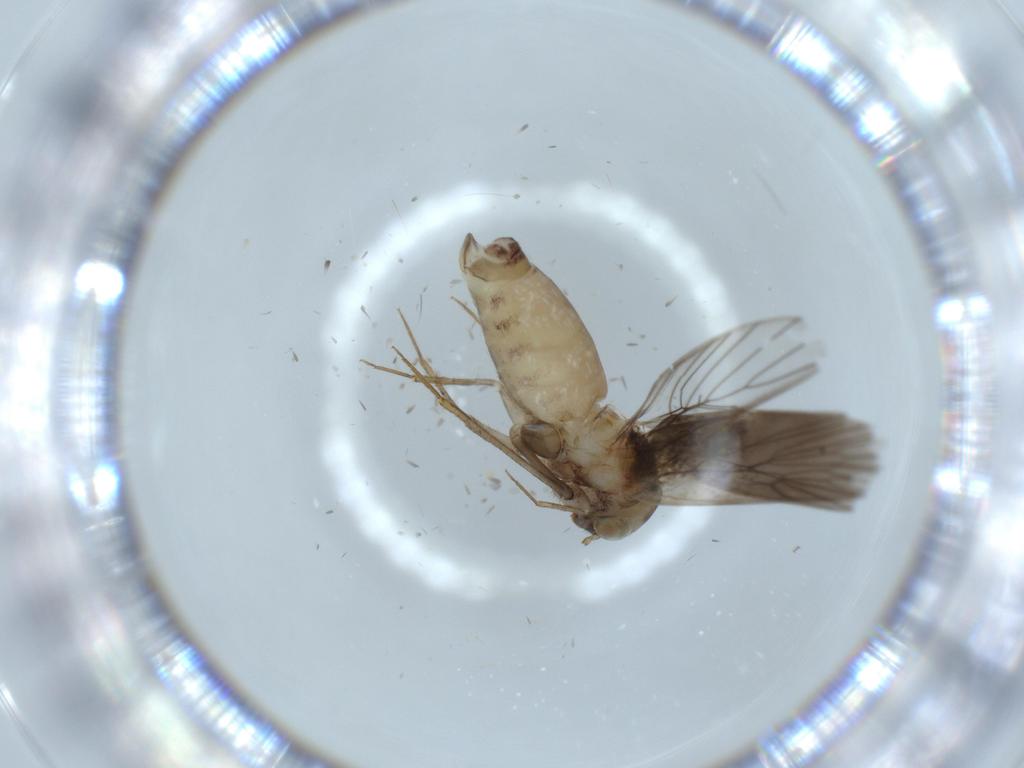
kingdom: Animalia
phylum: Arthropoda
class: Insecta
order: Psocodea
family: Lepidopsocidae
